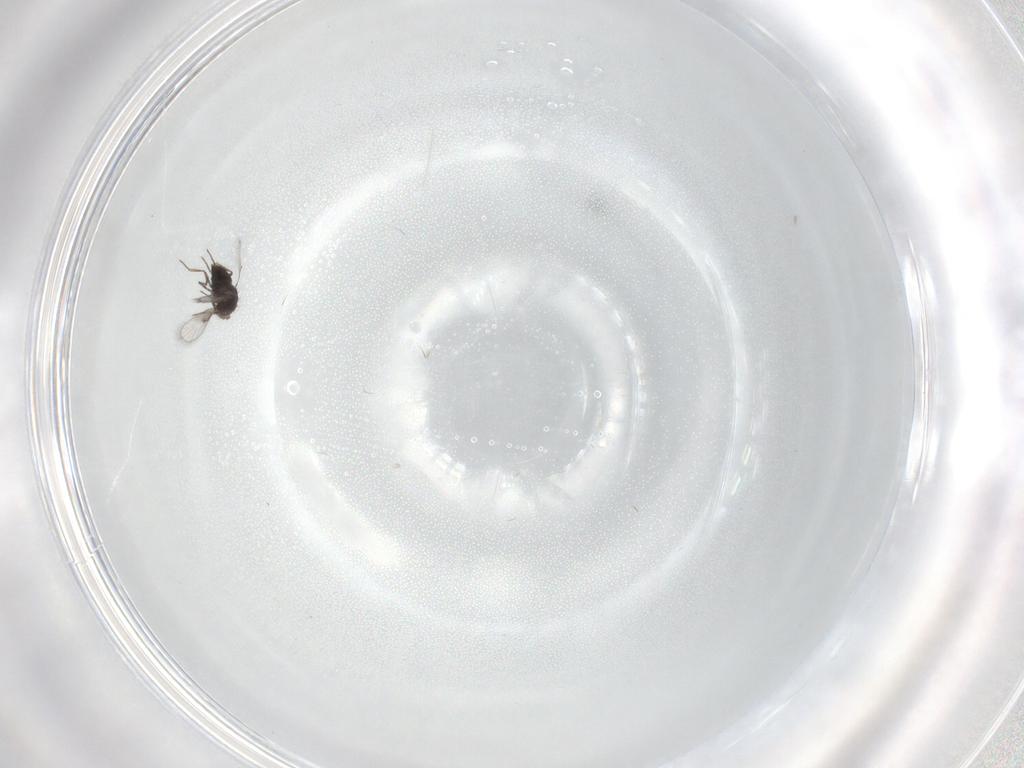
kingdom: Animalia
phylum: Arthropoda
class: Insecta
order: Hymenoptera
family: Trichogrammatidae
